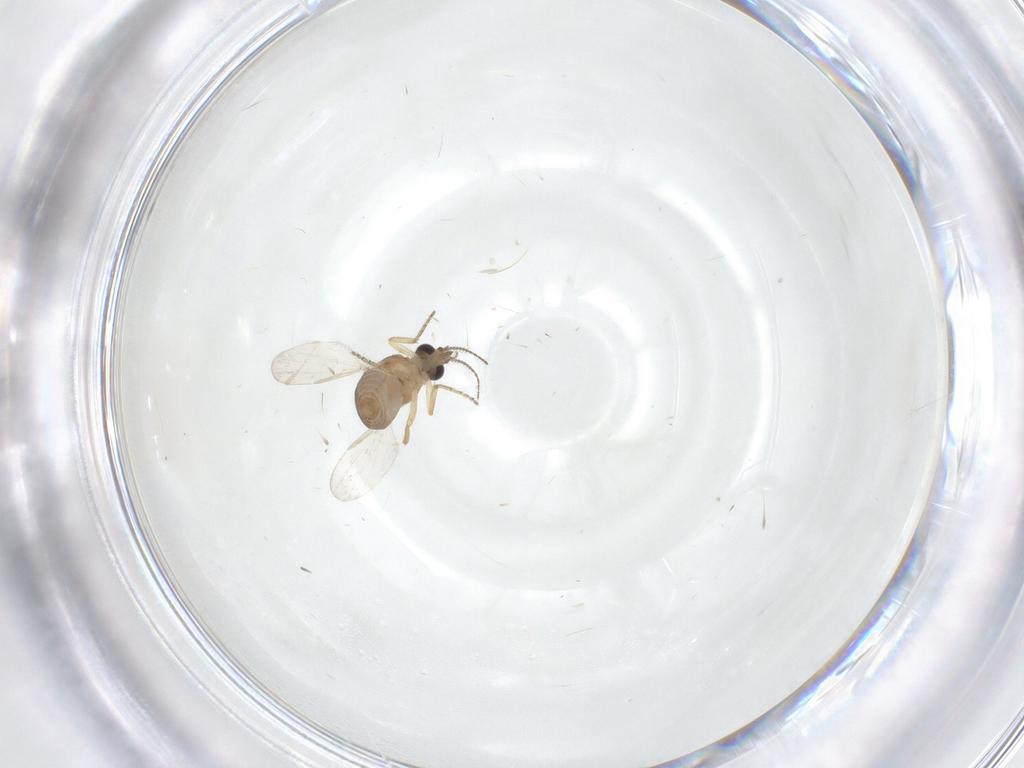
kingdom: Animalia
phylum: Arthropoda
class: Insecta
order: Diptera
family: Ceratopogonidae
